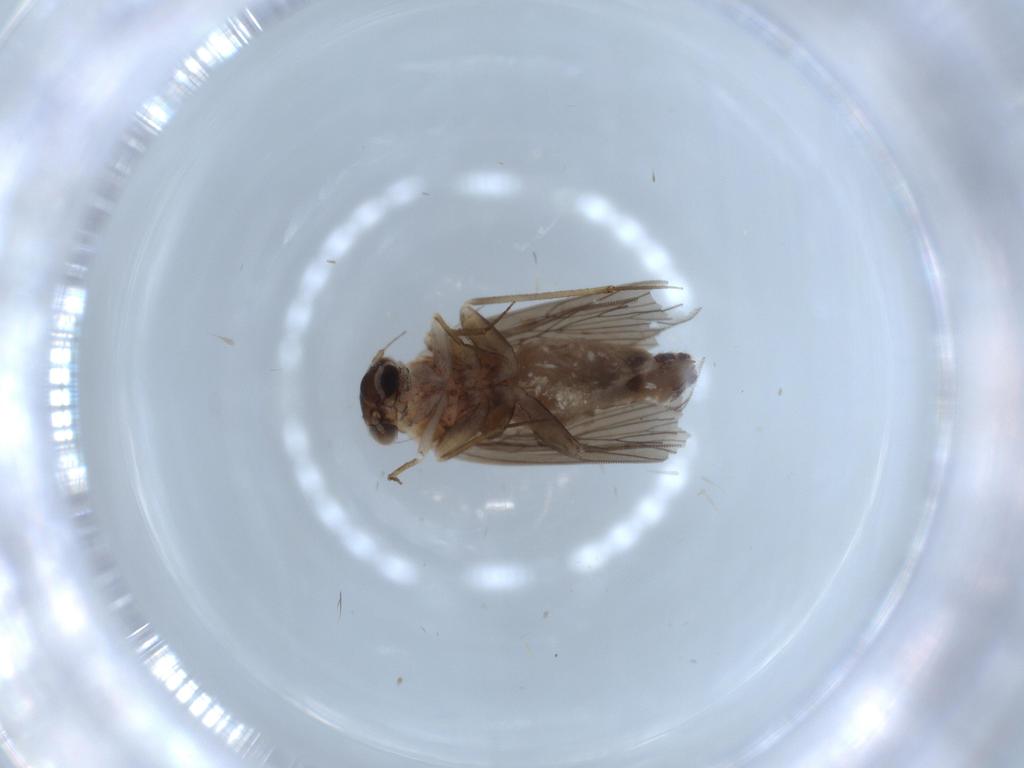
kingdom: Animalia
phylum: Arthropoda
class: Insecta
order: Psocodea
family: Lepidopsocidae
